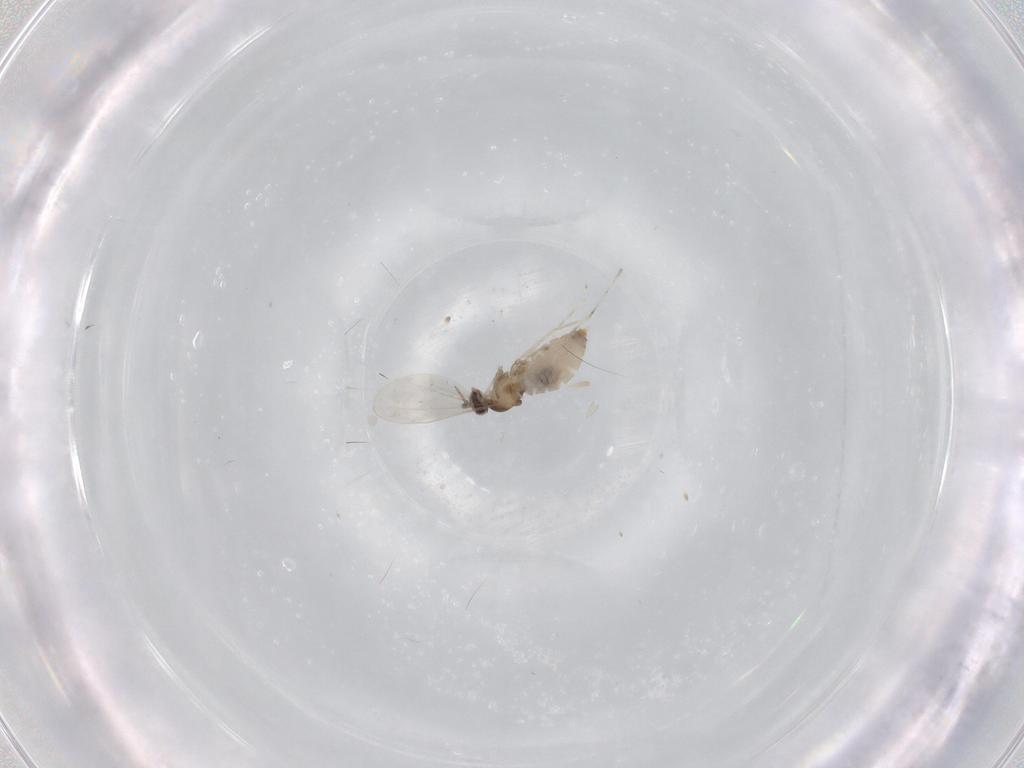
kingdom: Animalia
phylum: Arthropoda
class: Insecta
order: Diptera
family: Cecidomyiidae
